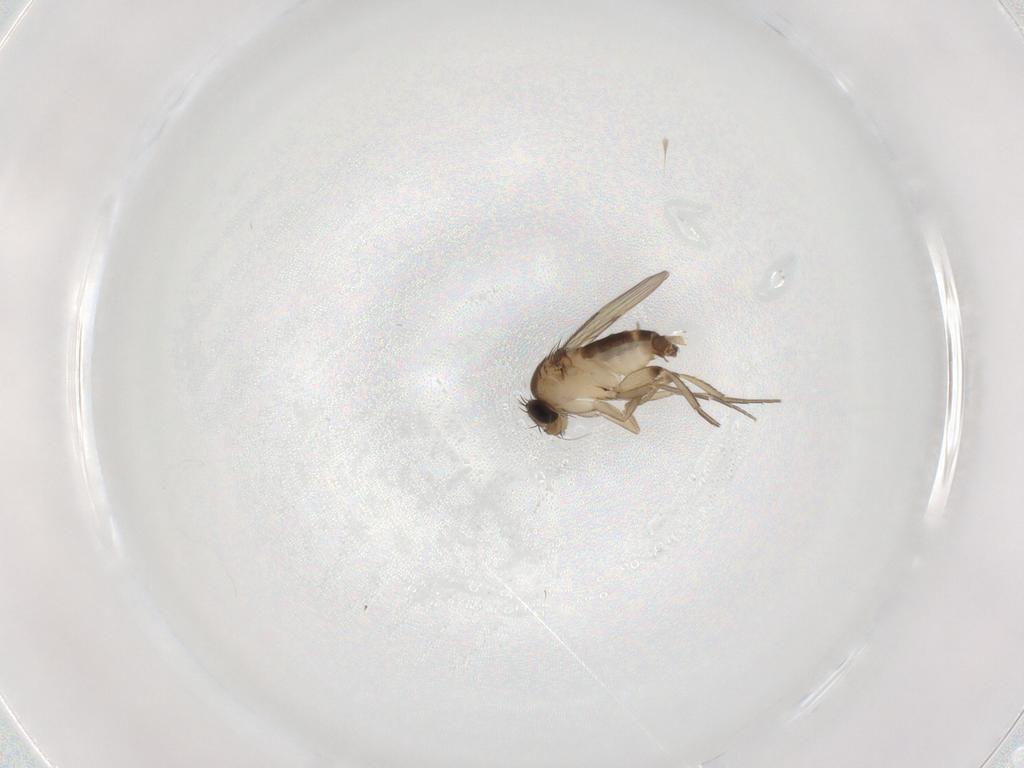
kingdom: Animalia
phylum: Arthropoda
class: Insecta
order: Diptera
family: Phoridae
